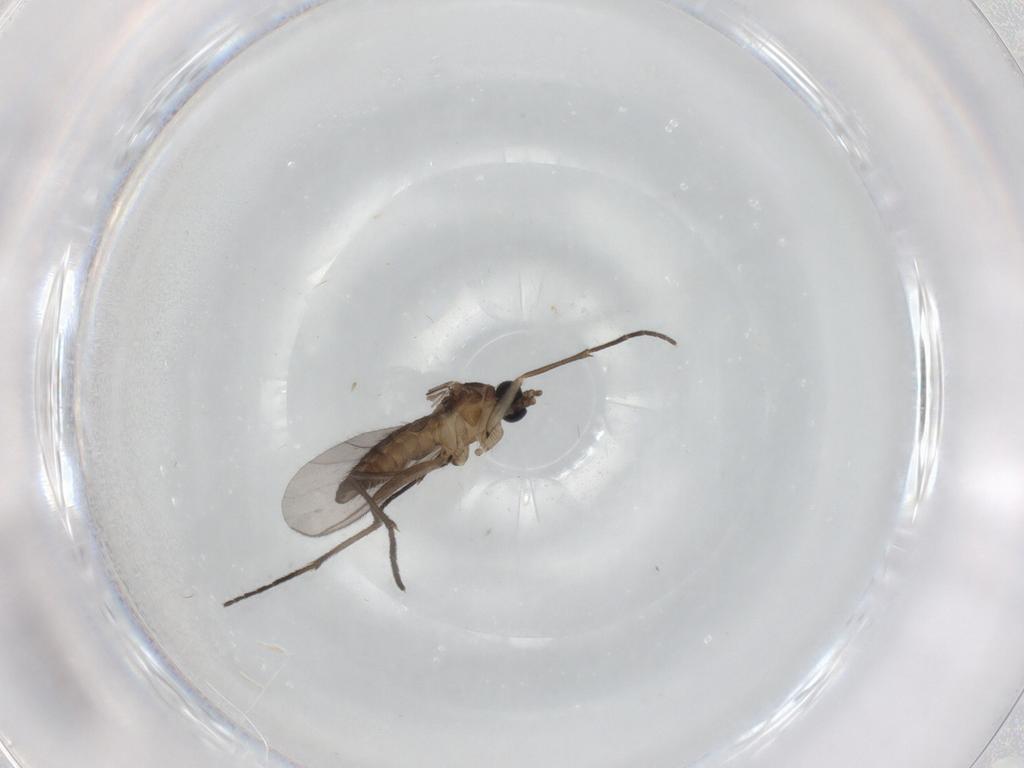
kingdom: Animalia
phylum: Arthropoda
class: Insecta
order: Diptera
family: Sciaridae
